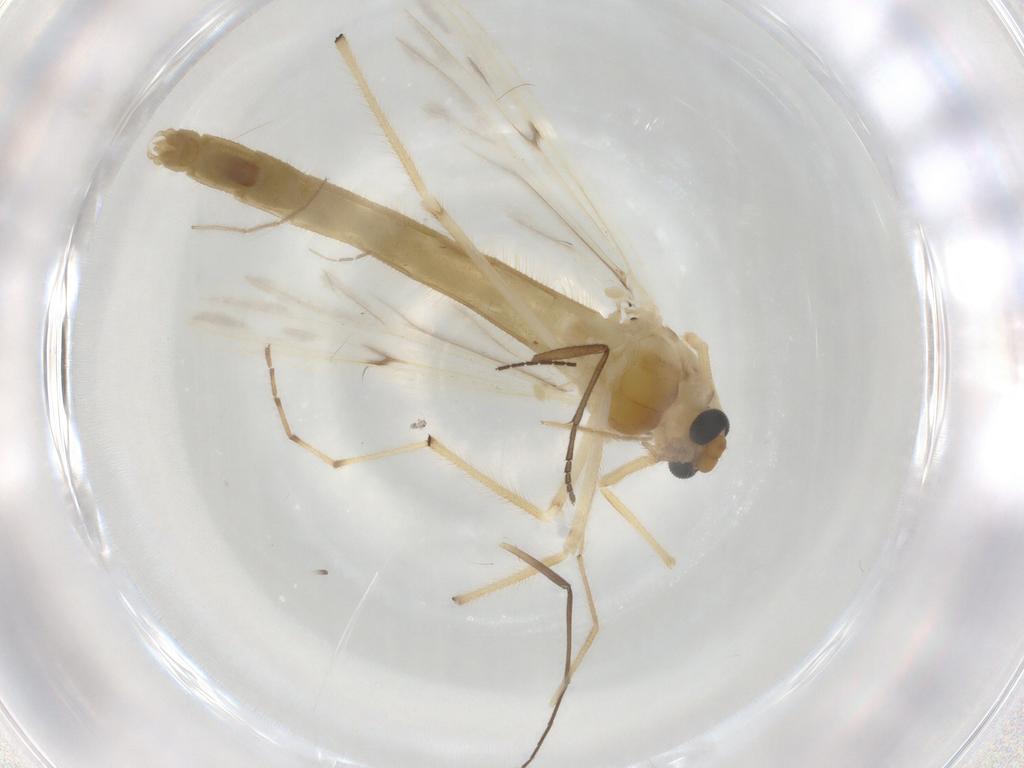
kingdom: Animalia
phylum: Arthropoda
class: Insecta
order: Diptera
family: Chironomidae
